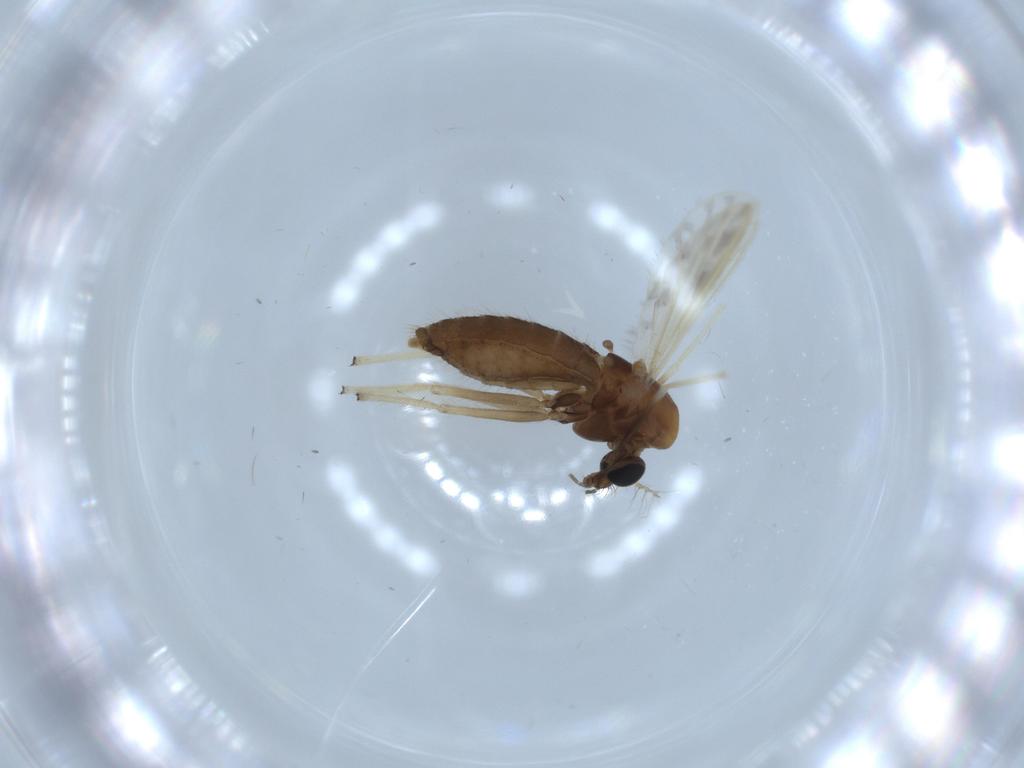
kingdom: Animalia
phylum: Arthropoda
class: Insecta
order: Diptera
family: Chironomidae
